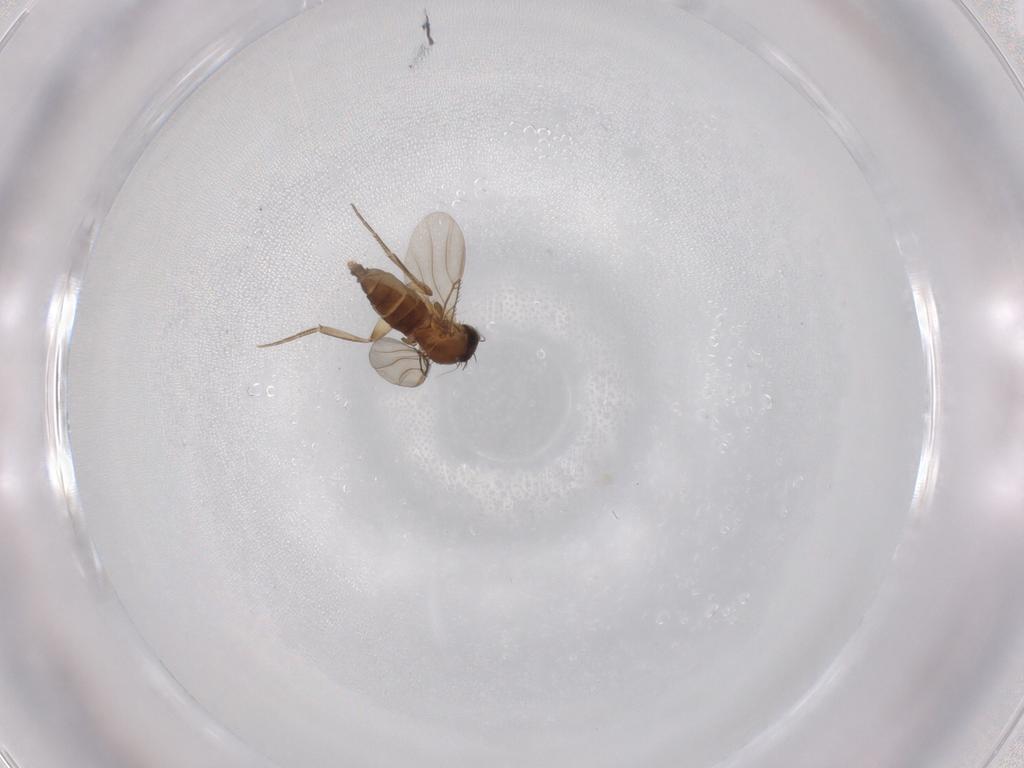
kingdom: Animalia
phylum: Arthropoda
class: Insecta
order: Diptera
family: Phoridae
